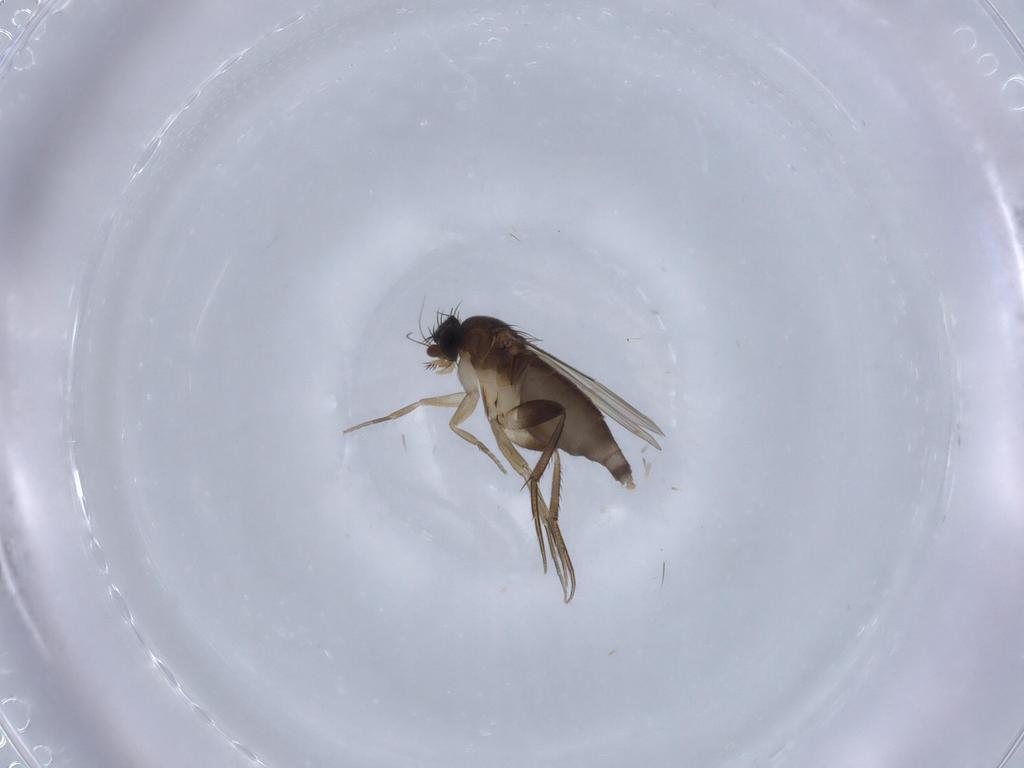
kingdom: Animalia
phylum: Arthropoda
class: Insecta
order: Diptera
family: Phoridae
